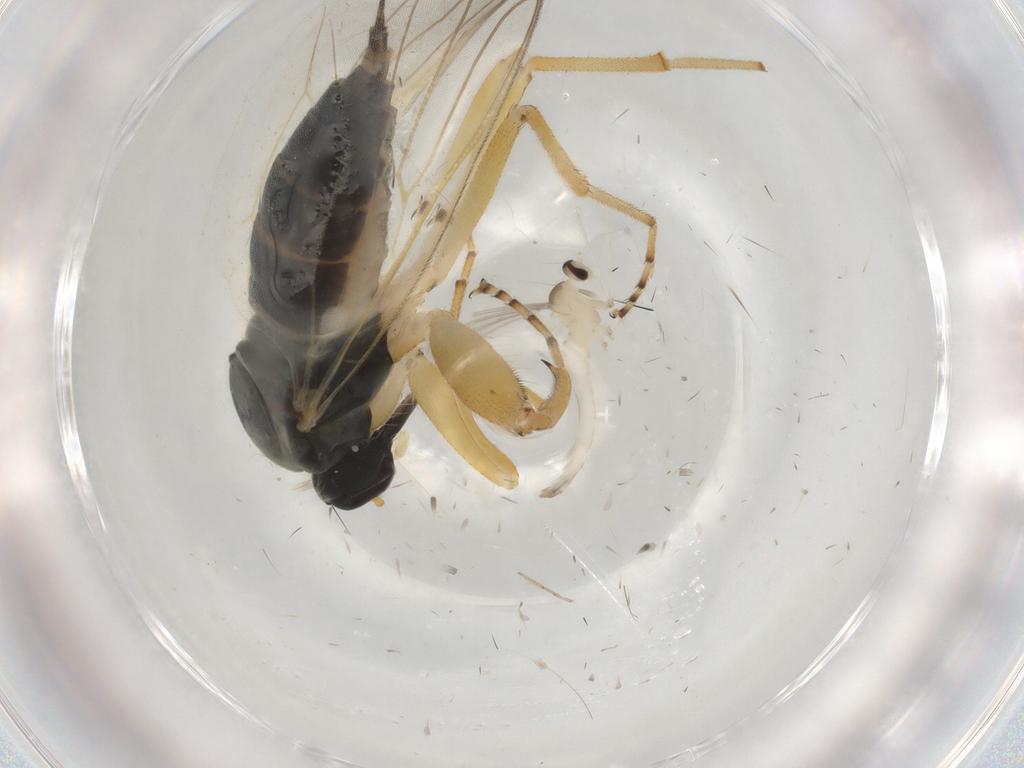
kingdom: Animalia
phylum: Arthropoda
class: Insecta
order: Diptera
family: Hybotidae
